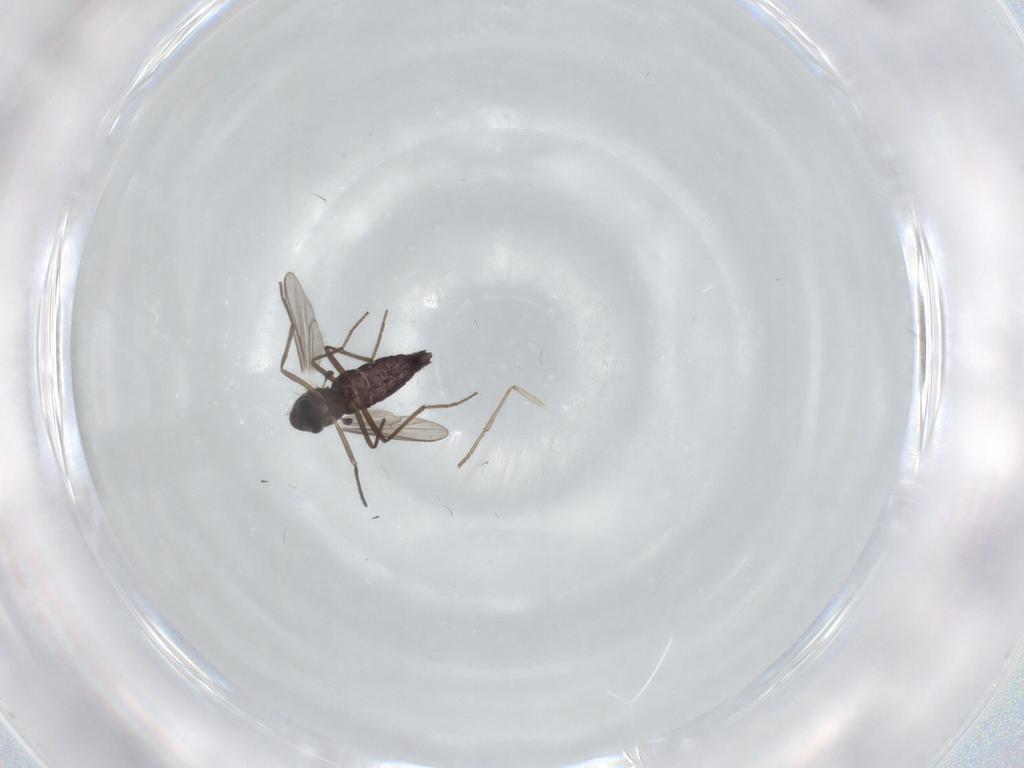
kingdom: Animalia
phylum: Arthropoda
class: Insecta
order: Diptera
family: Chironomidae
